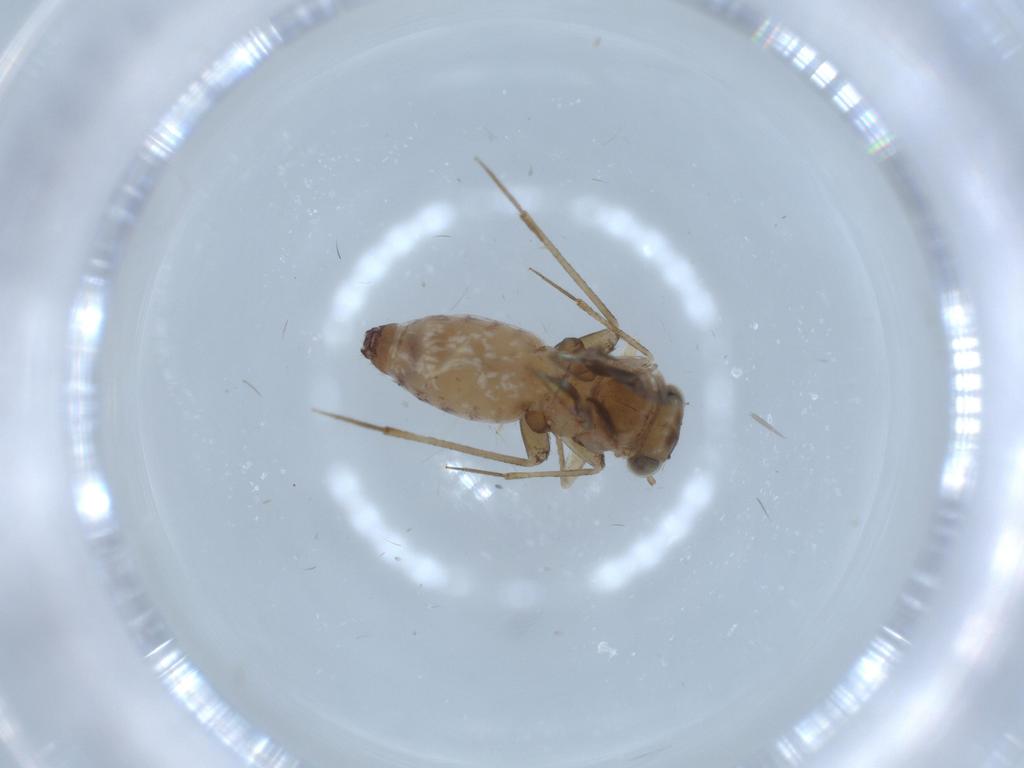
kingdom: Animalia
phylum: Arthropoda
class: Insecta
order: Psocodea
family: Lepidopsocidae
